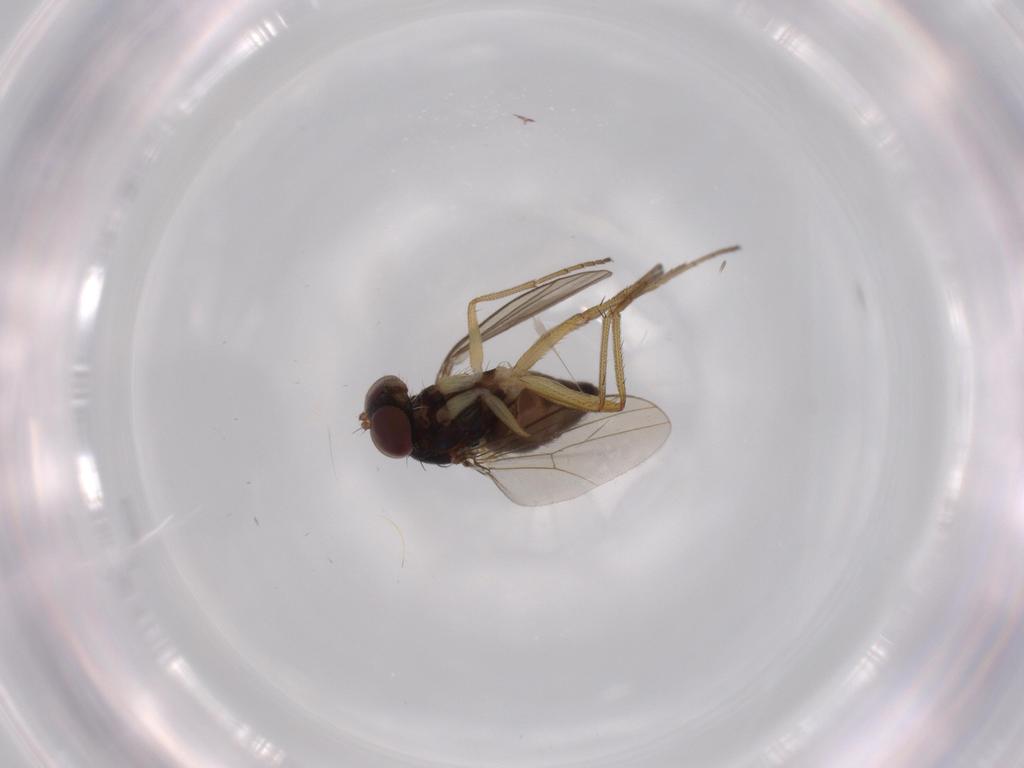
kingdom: Animalia
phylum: Arthropoda
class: Insecta
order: Diptera
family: Dolichopodidae
